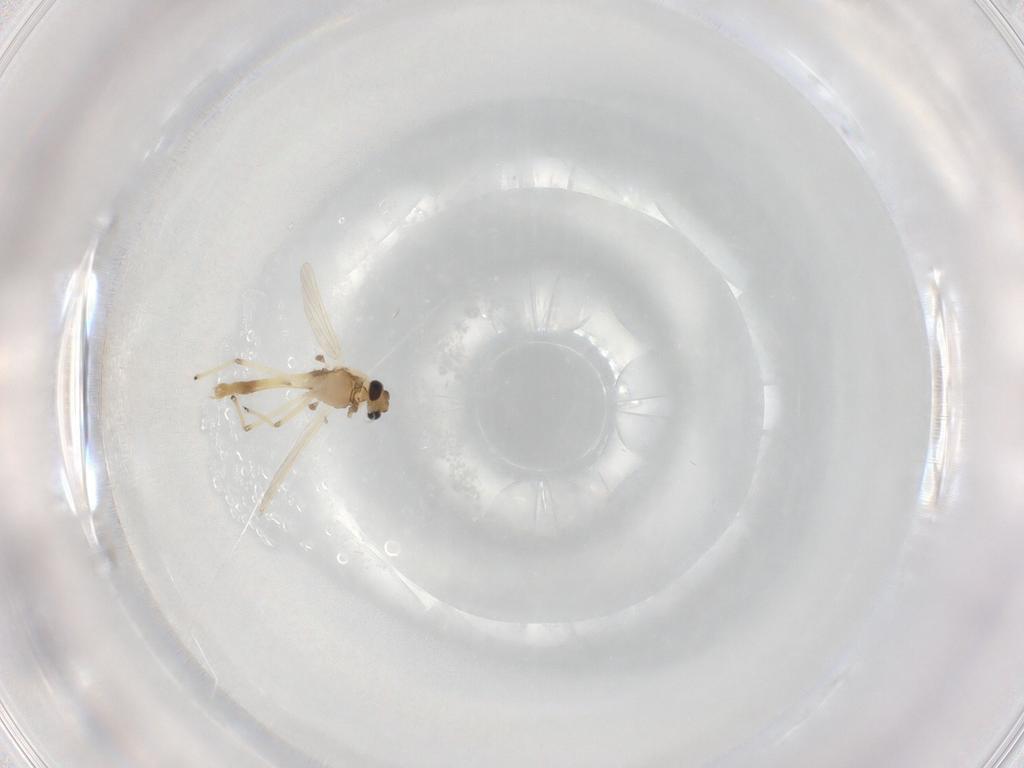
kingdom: Animalia
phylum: Arthropoda
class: Insecta
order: Diptera
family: Chironomidae
